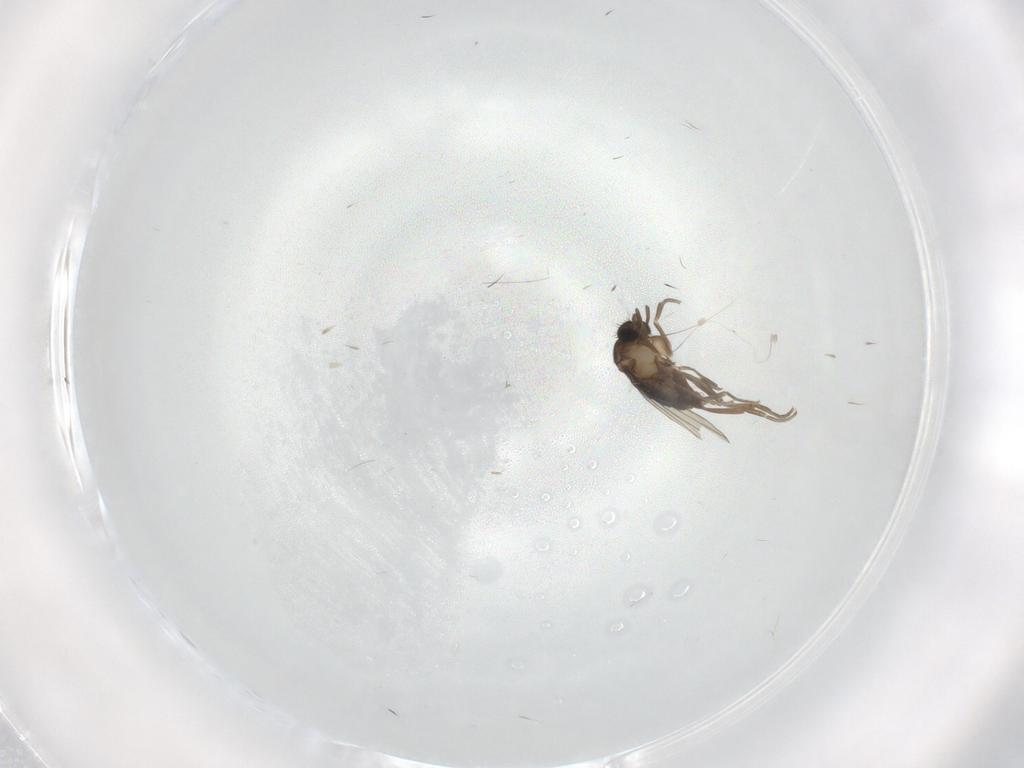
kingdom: Animalia
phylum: Arthropoda
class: Insecta
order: Diptera
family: Phoridae
